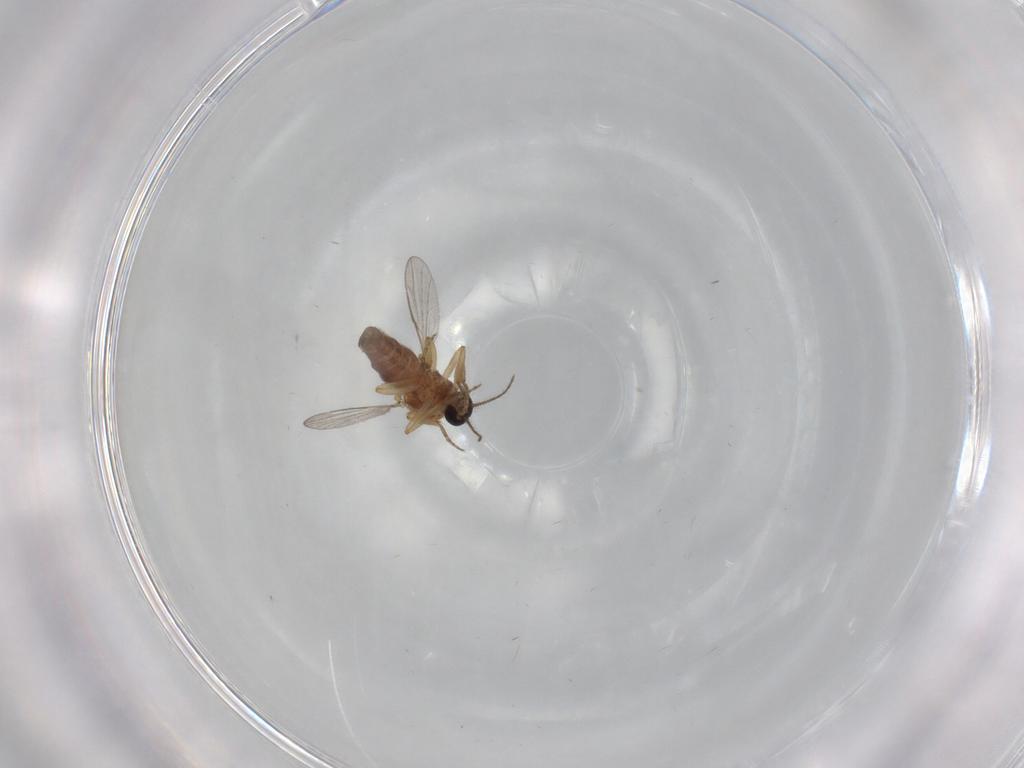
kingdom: Animalia
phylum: Arthropoda
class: Insecta
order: Diptera
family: Ceratopogonidae
